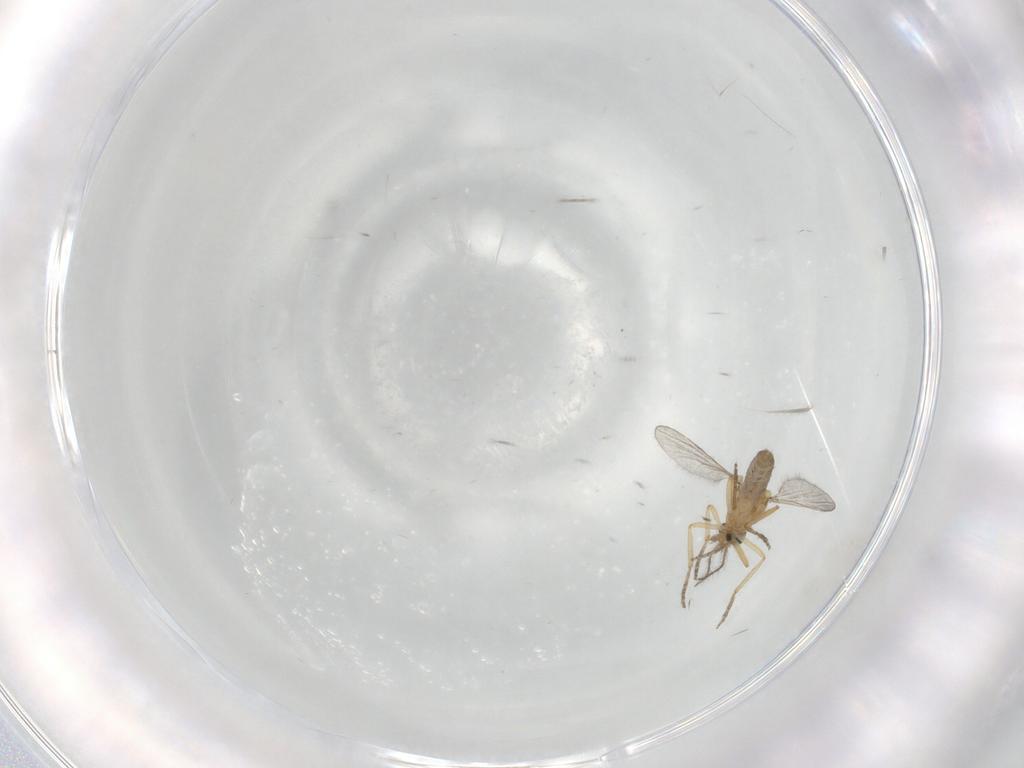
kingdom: Animalia
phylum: Arthropoda
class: Insecta
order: Diptera
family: Ceratopogonidae
